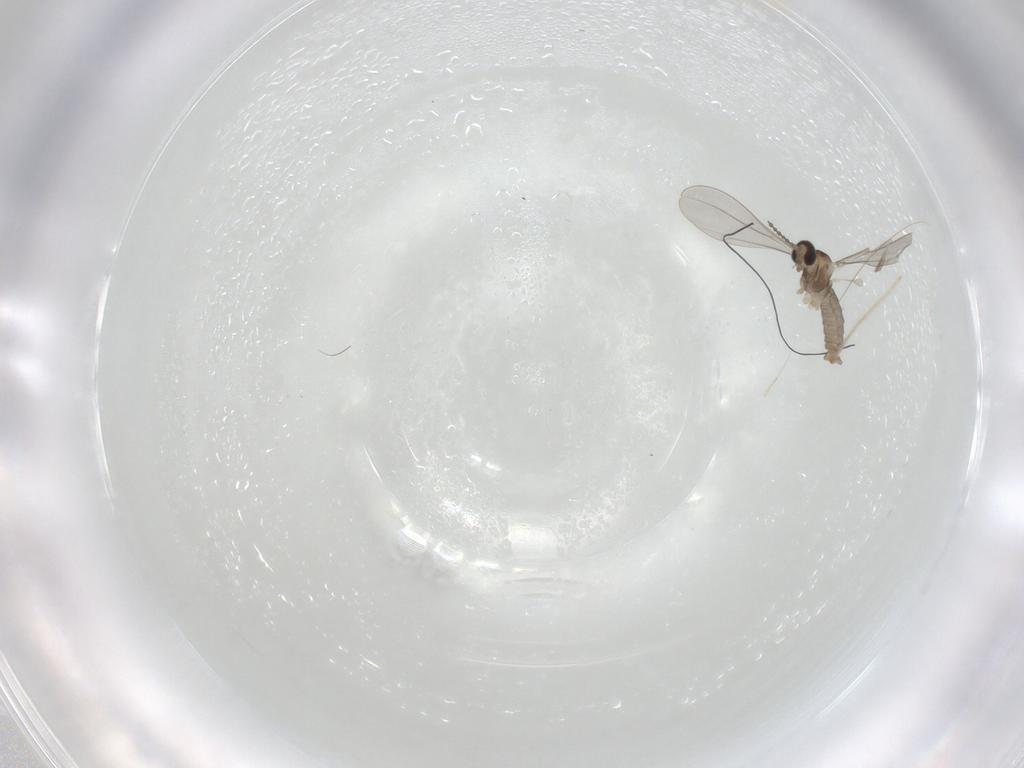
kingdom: Animalia
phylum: Arthropoda
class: Insecta
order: Diptera
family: Cecidomyiidae
